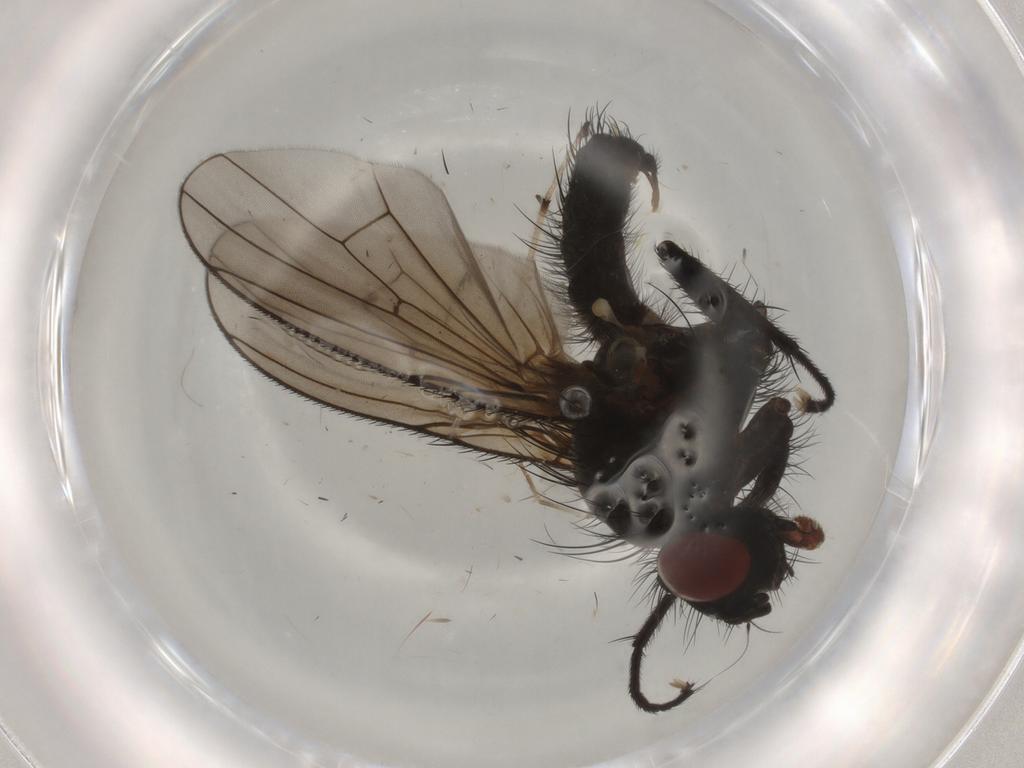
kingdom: Animalia
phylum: Arthropoda
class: Insecta
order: Diptera
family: Anthomyiidae
